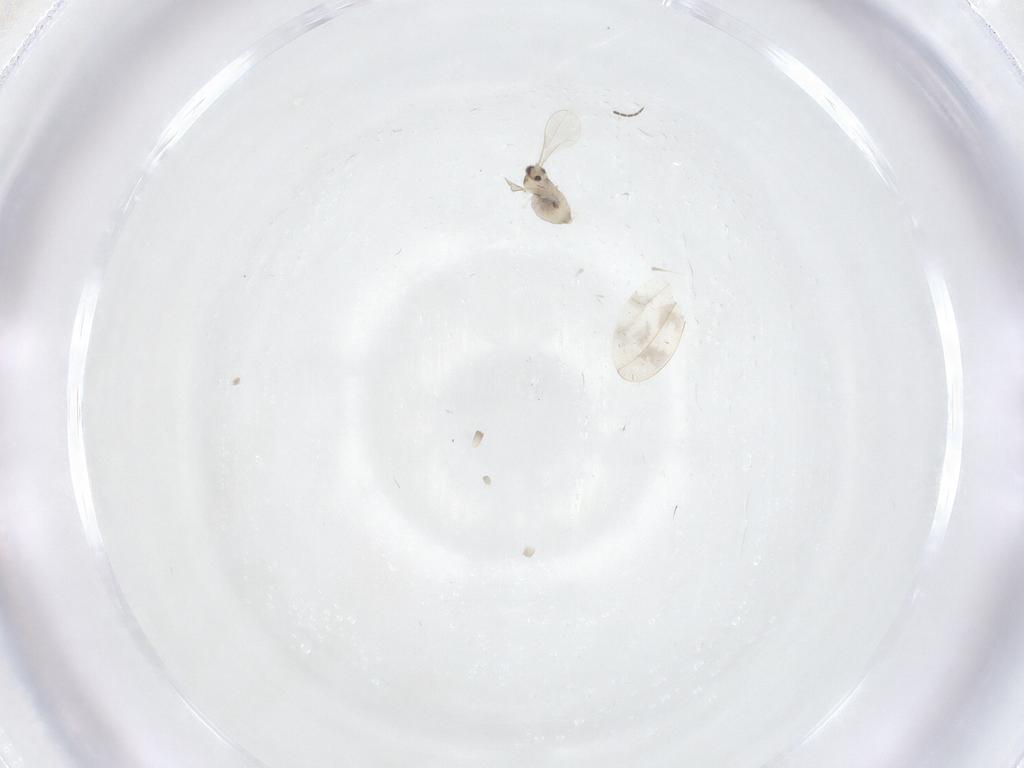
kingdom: Animalia
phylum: Arthropoda
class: Insecta
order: Diptera
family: Cecidomyiidae
